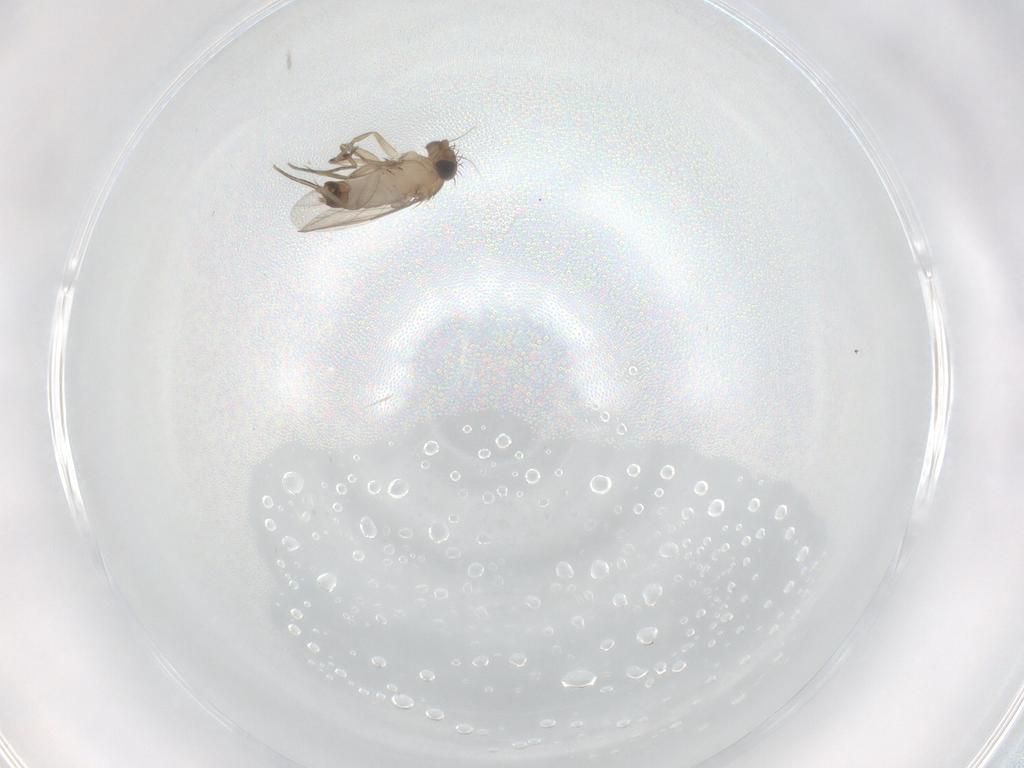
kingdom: Animalia
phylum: Arthropoda
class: Insecta
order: Diptera
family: Phoridae
